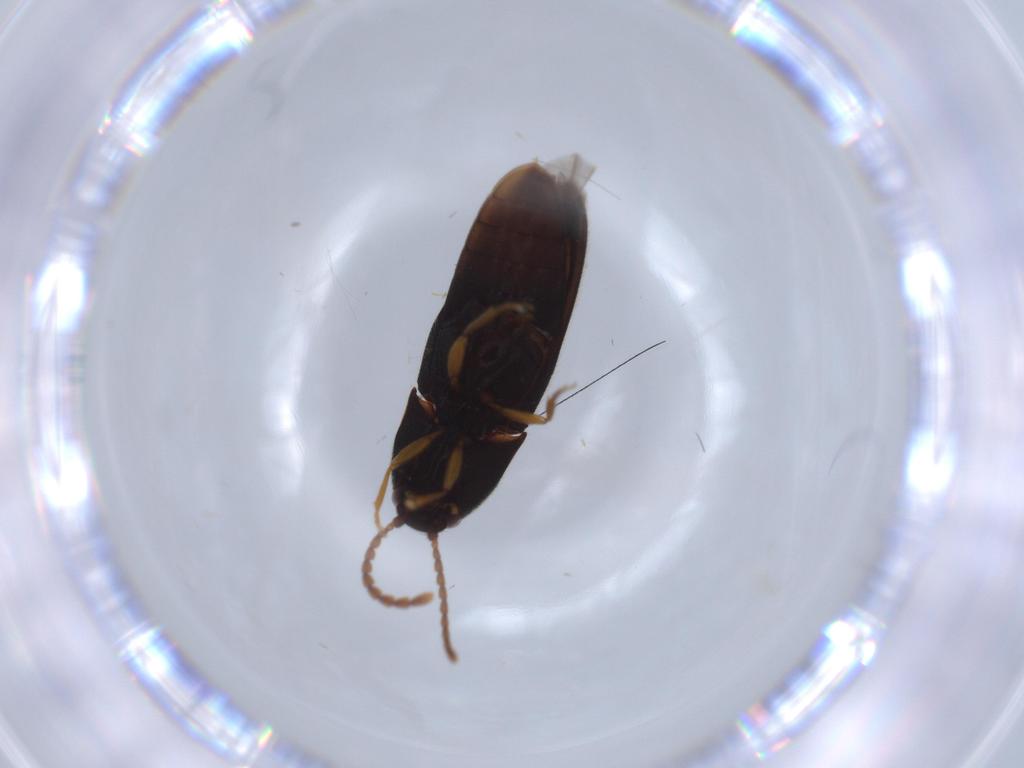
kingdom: Animalia
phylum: Arthropoda
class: Insecta
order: Coleoptera
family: Elateridae
